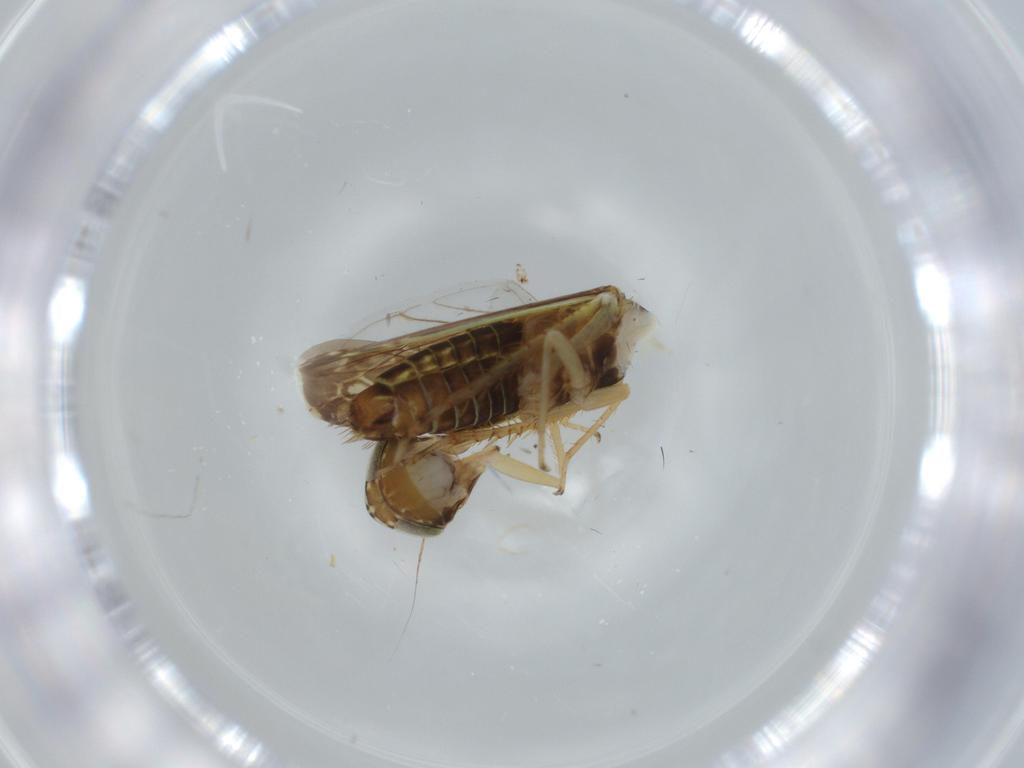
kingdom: Animalia
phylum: Arthropoda
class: Insecta
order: Hemiptera
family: Cicadellidae
